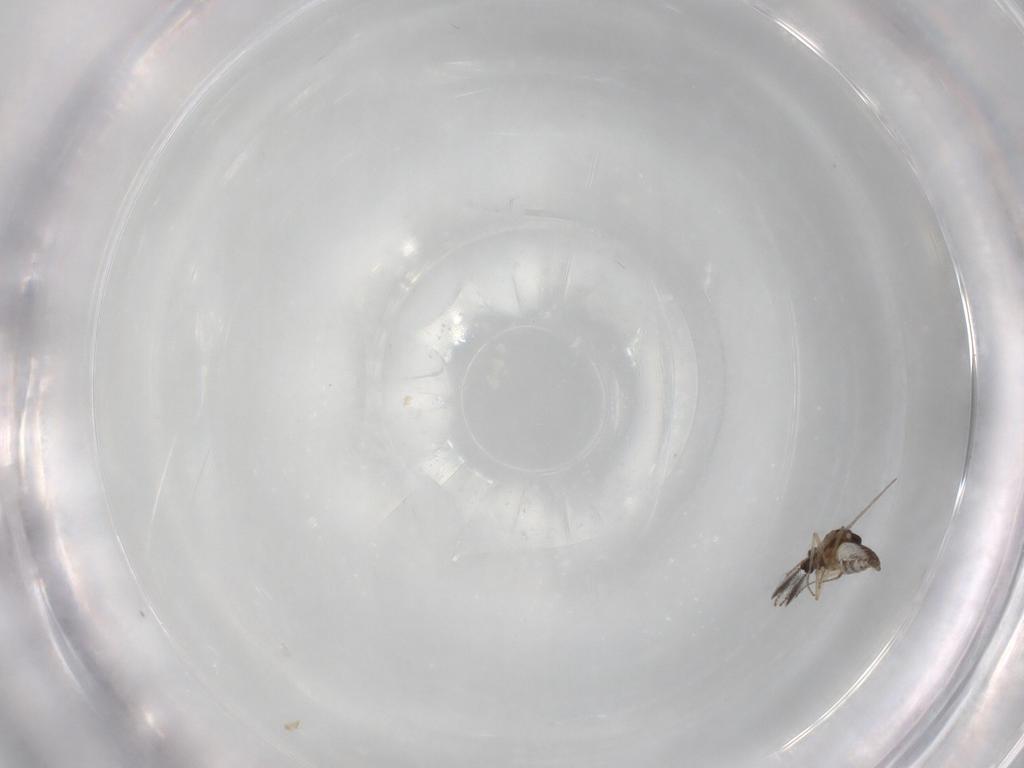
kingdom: Animalia
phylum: Arthropoda
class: Insecta
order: Diptera
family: Ceratopogonidae
